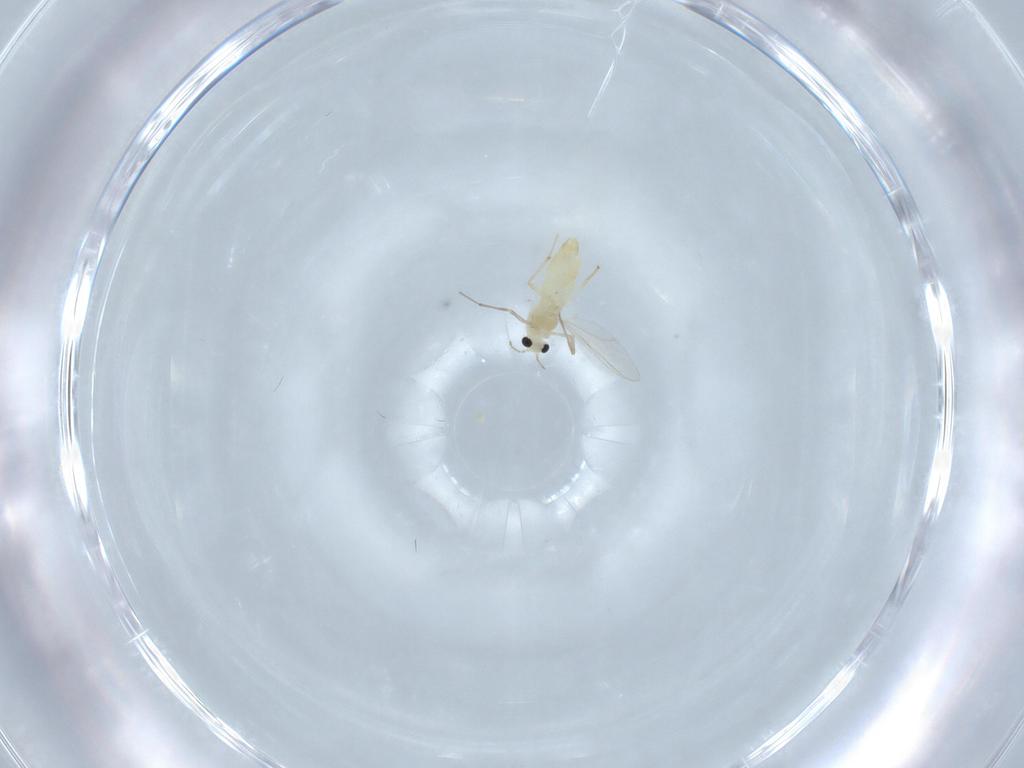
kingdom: Animalia
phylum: Arthropoda
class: Insecta
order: Diptera
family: Chironomidae
